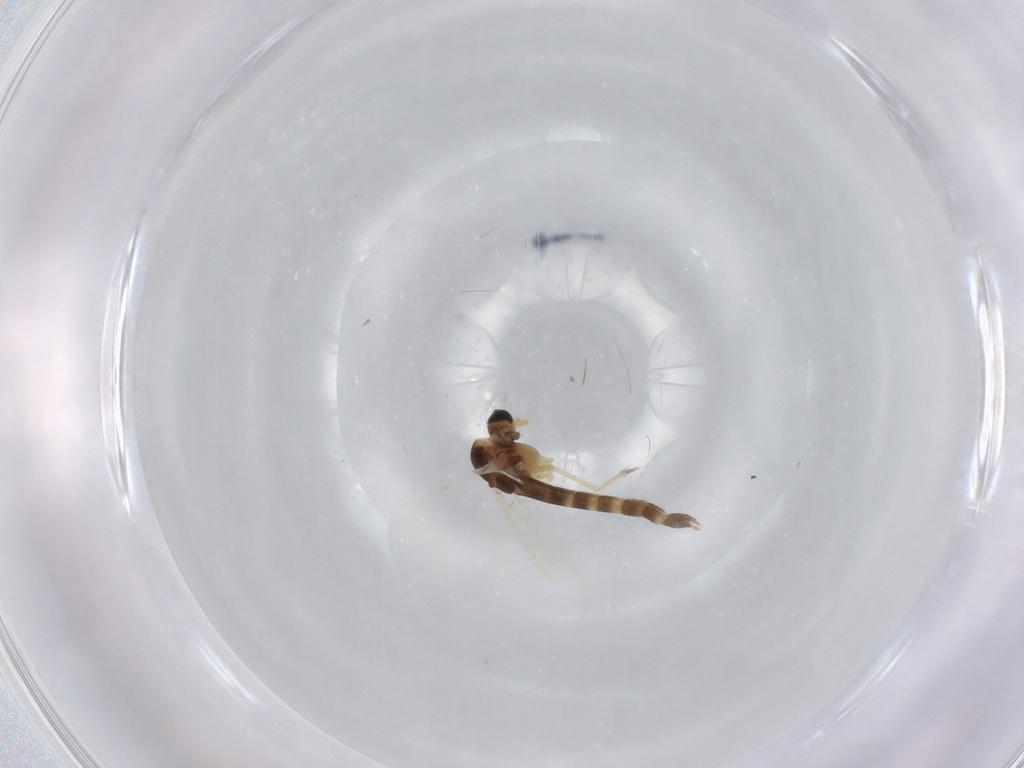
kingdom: Animalia
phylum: Arthropoda
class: Insecta
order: Diptera
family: Chironomidae
